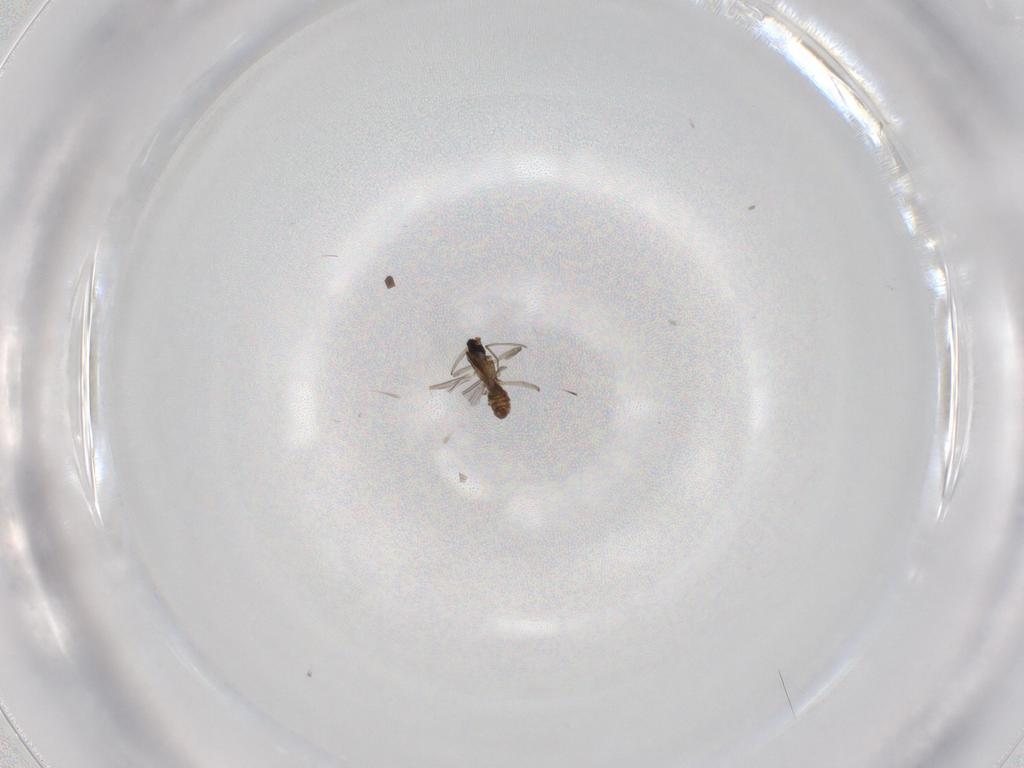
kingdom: Animalia
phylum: Arthropoda
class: Insecta
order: Diptera
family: Cecidomyiidae
